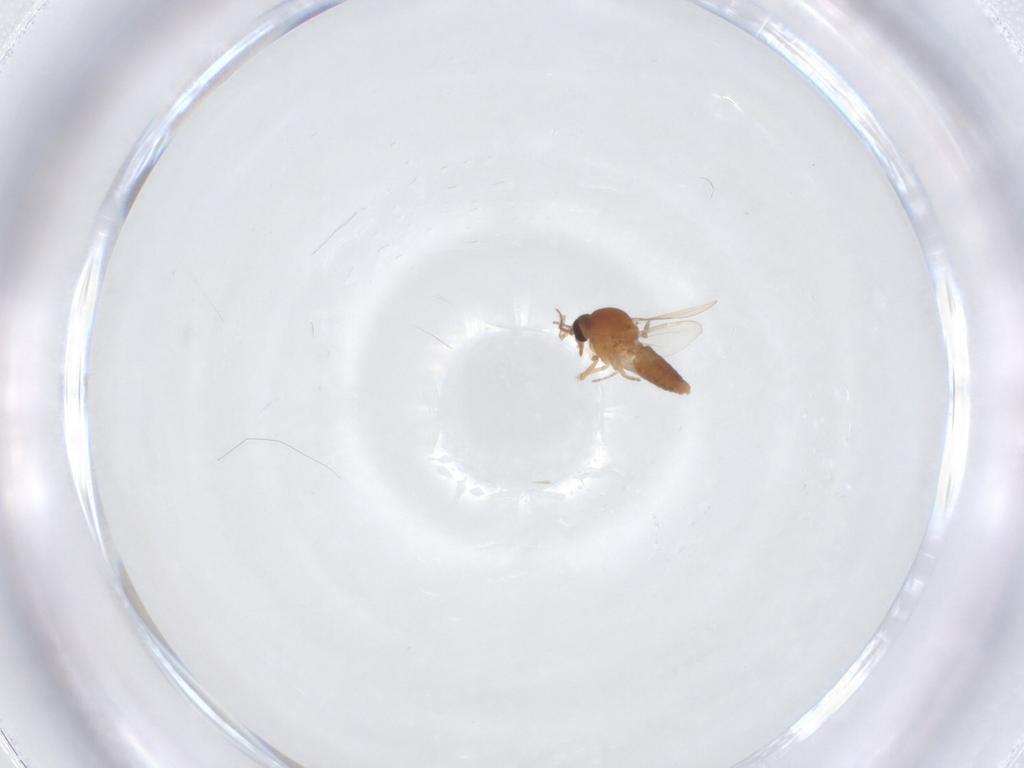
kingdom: Animalia
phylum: Arthropoda
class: Insecta
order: Diptera
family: Ceratopogonidae
